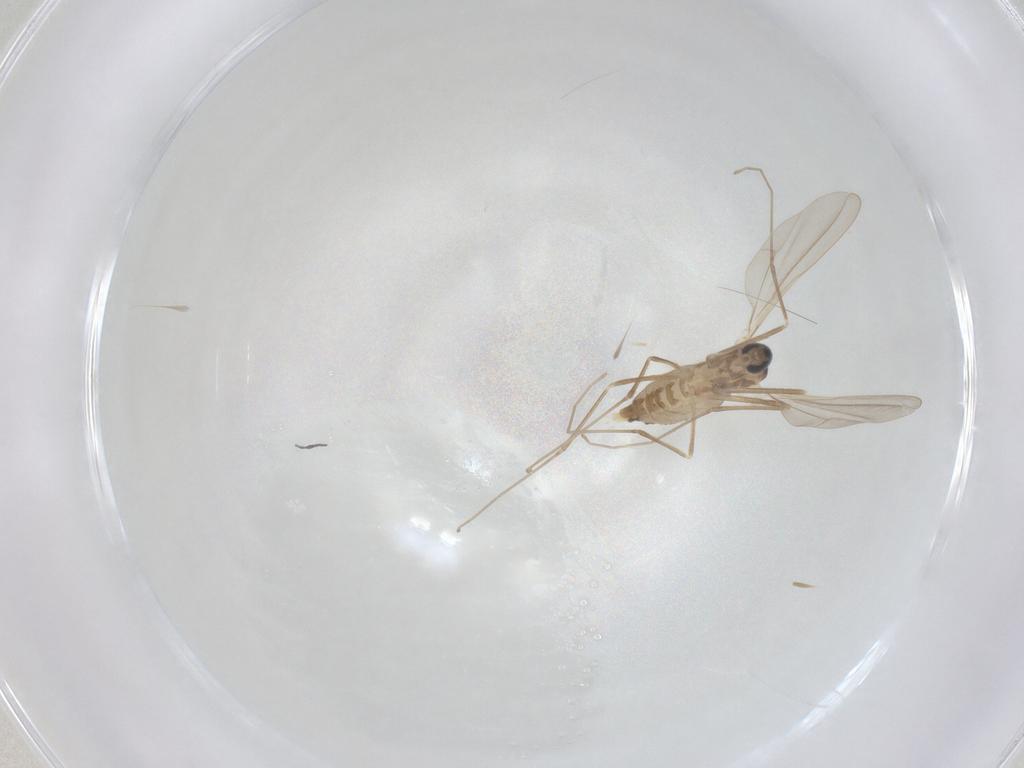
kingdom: Animalia
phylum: Arthropoda
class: Insecta
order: Diptera
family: Cecidomyiidae
